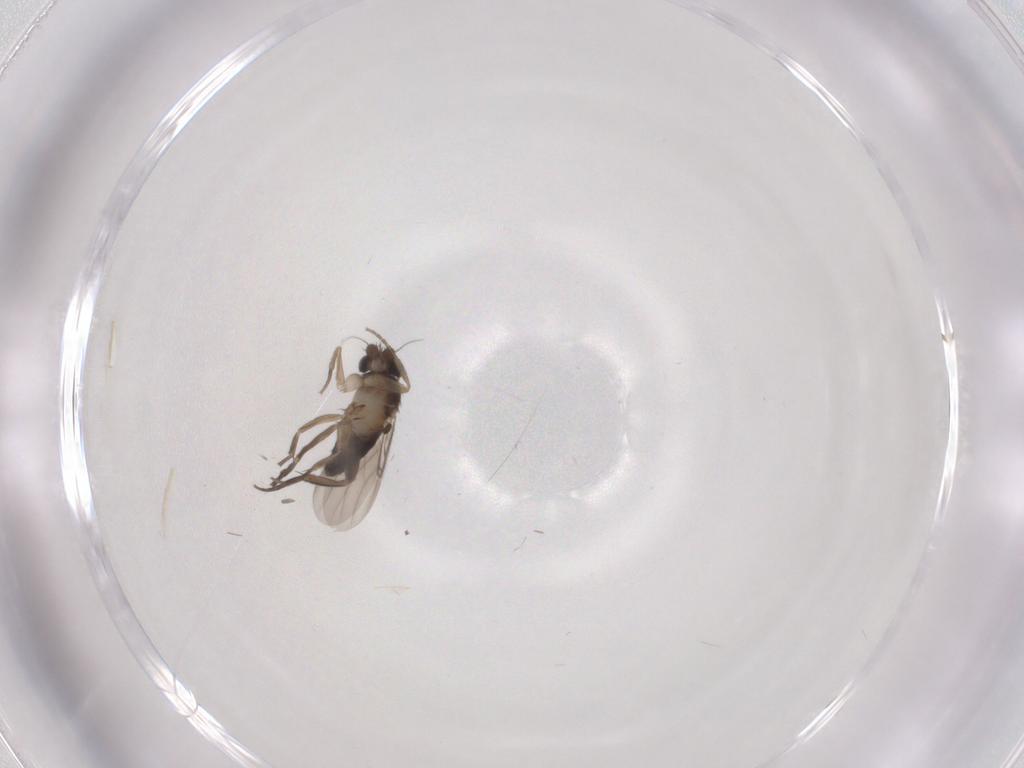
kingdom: Animalia
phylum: Arthropoda
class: Insecta
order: Diptera
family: Phoridae
